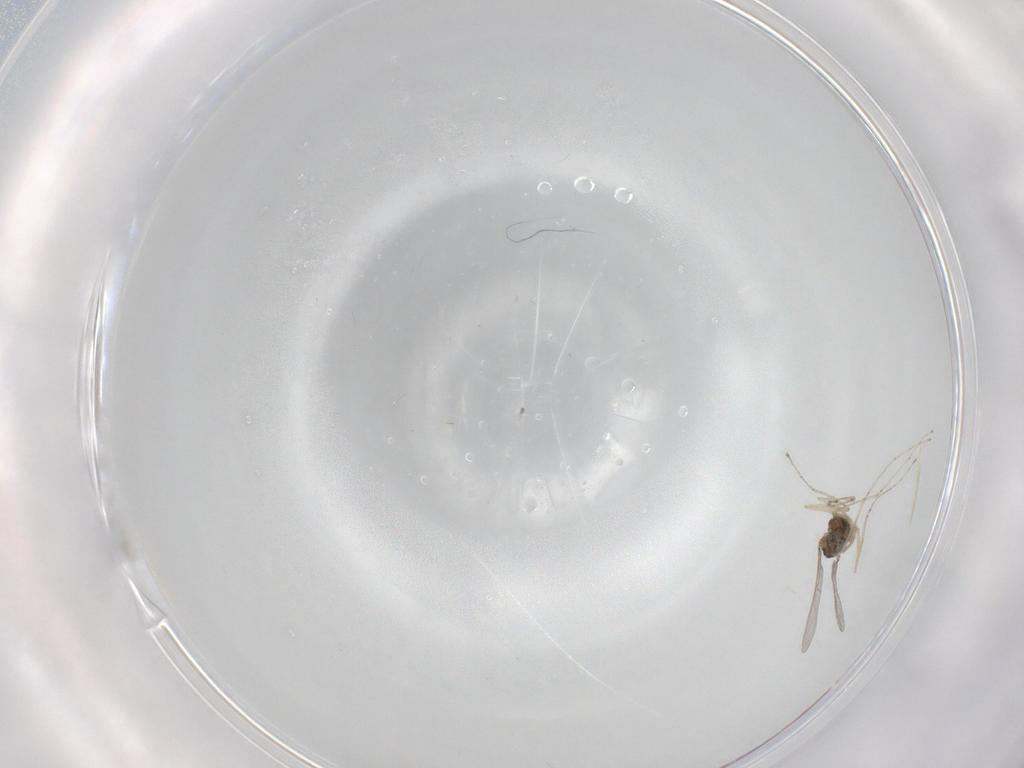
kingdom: Animalia
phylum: Arthropoda
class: Insecta
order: Diptera
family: Cecidomyiidae
